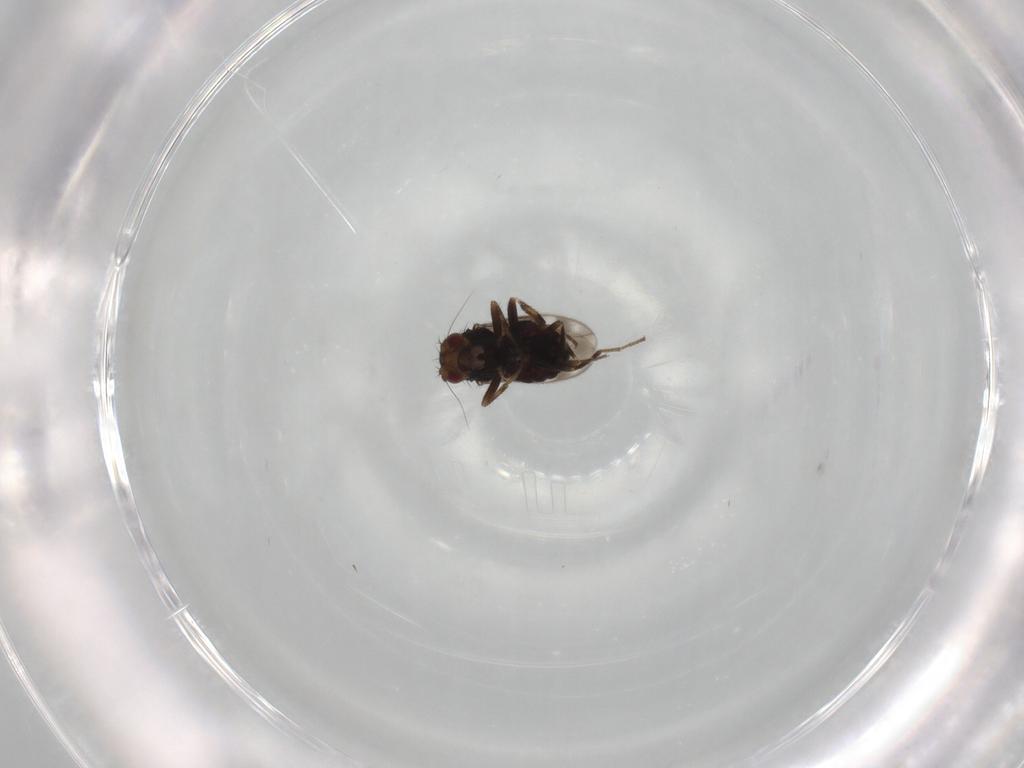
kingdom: Animalia
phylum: Arthropoda
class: Insecta
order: Diptera
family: Sphaeroceridae
